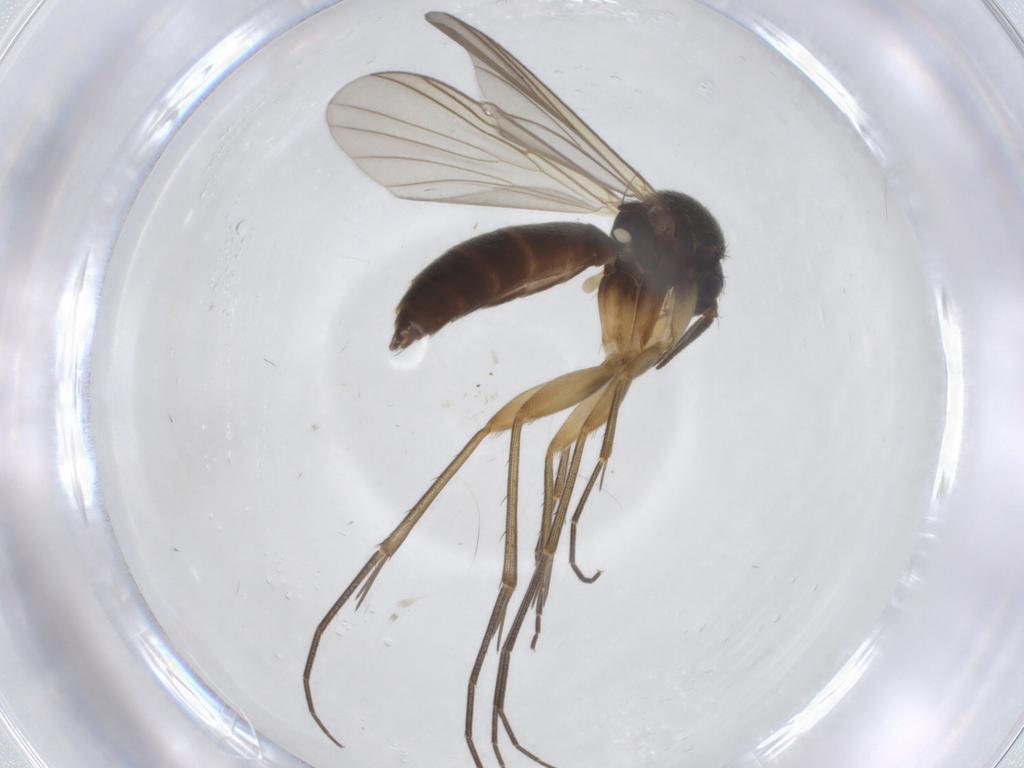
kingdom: Animalia
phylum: Arthropoda
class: Insecta
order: Diptera
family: Mycetophilidae
